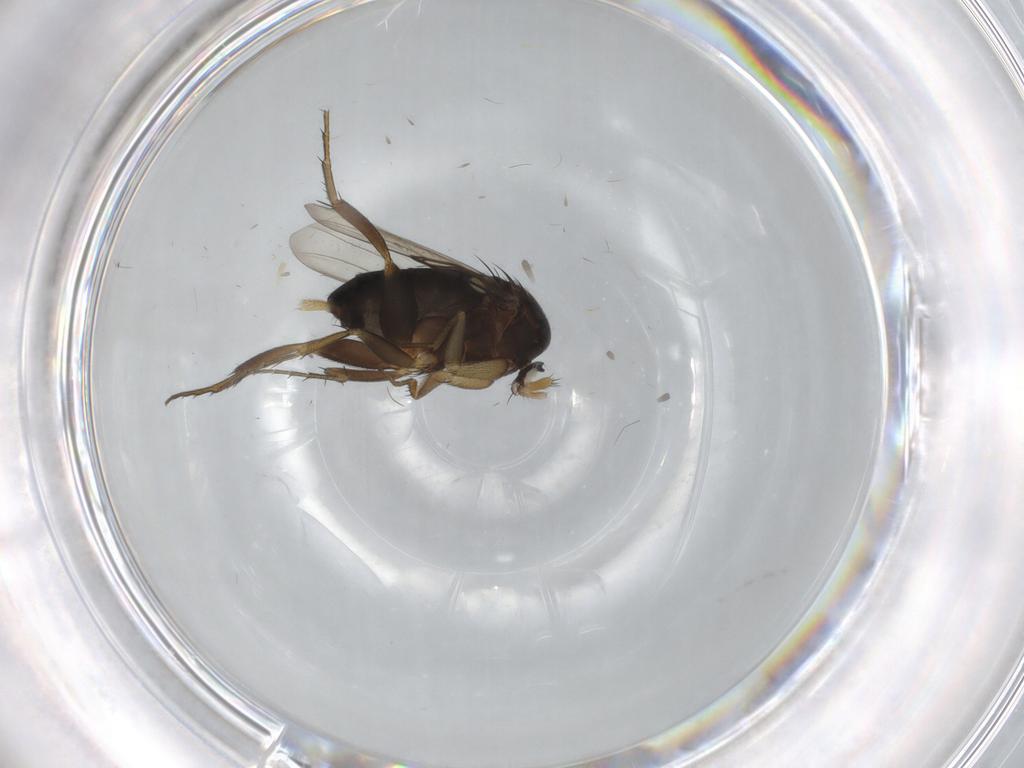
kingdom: Animalia
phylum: Arthropoda
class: Insecta
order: Diptera
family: Phoridae
